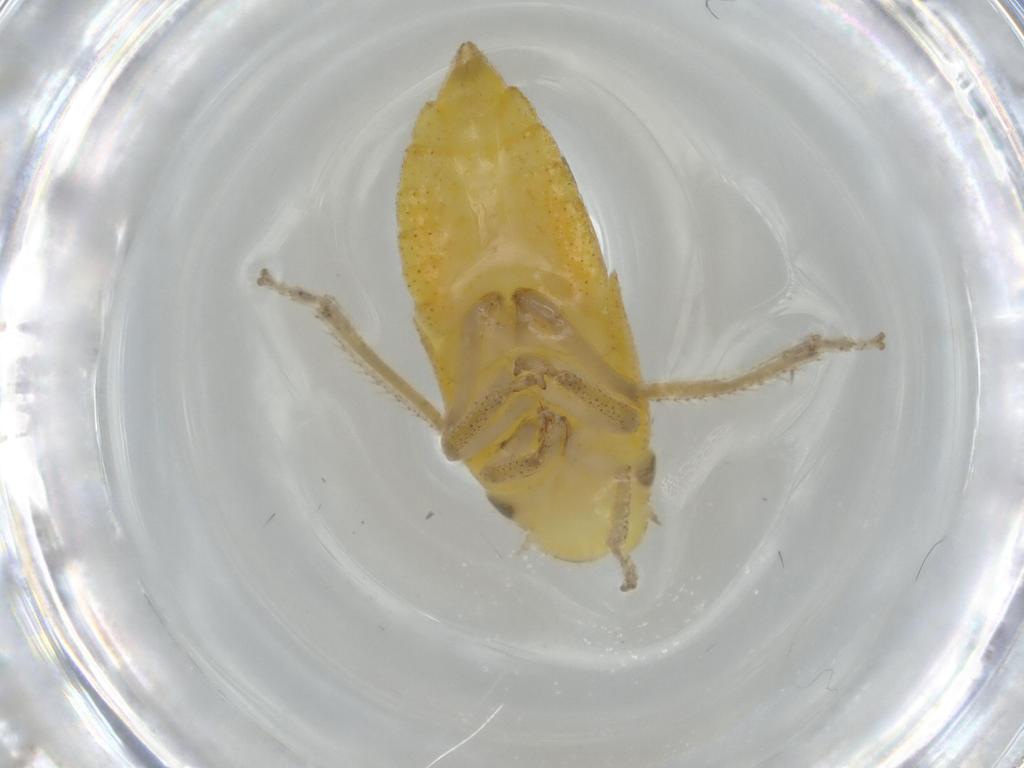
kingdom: Animalia
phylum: Arthropoda
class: Insecta
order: Hemiptera
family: Cicadellidae
